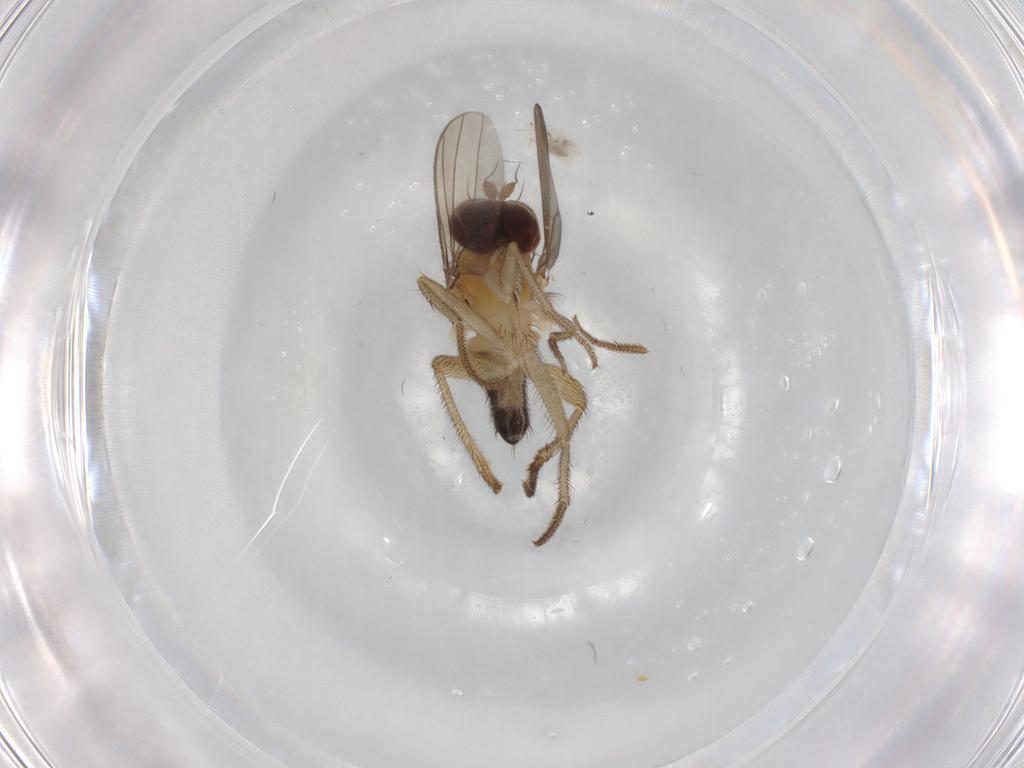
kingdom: Animalia
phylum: Arthropoda
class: Insecta
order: Diptera
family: Dolichopodidae
